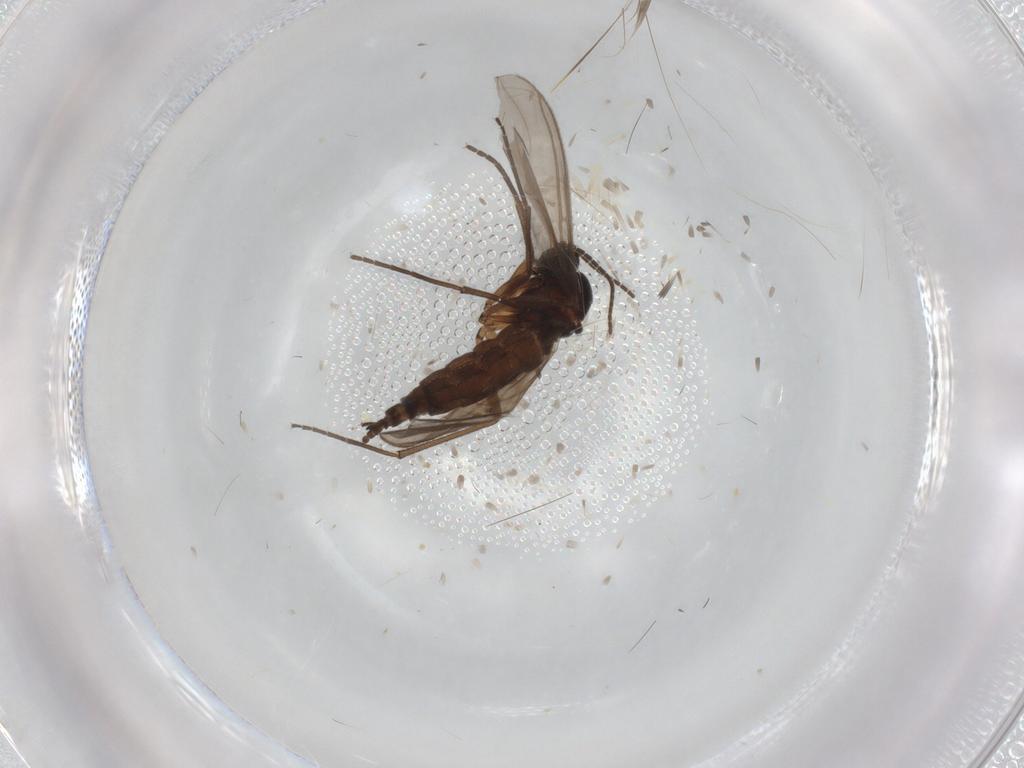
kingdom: Animalia
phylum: Arthropoda
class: Insecta
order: Diptera
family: Sciaridae
